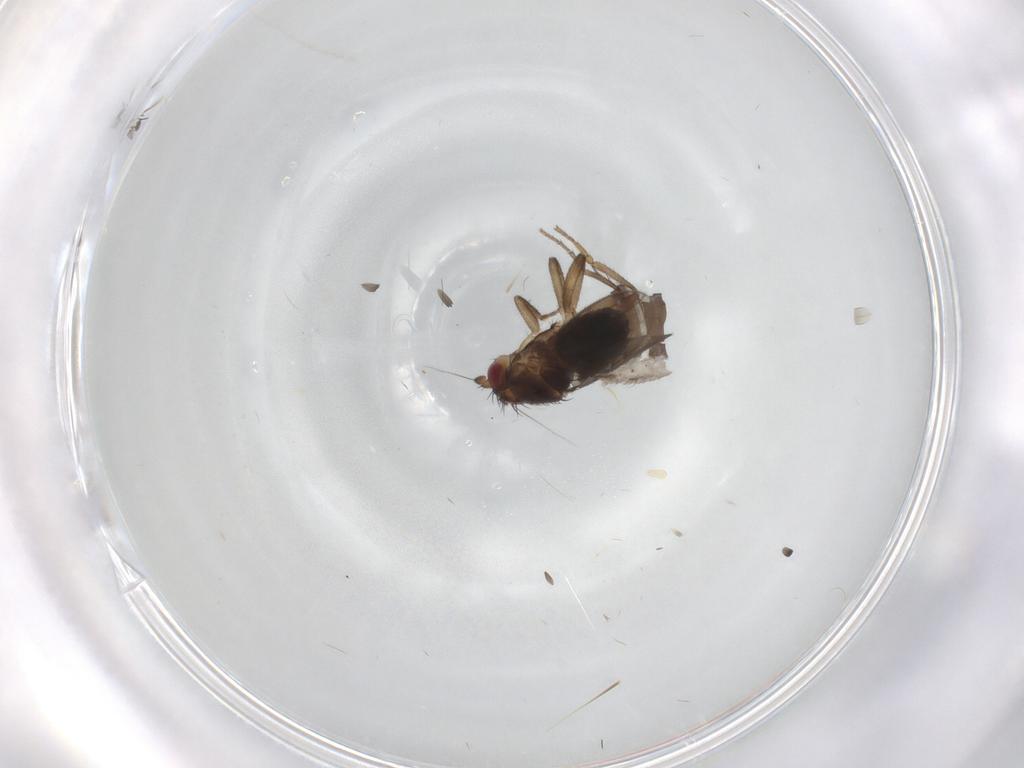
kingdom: Animalia
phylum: Arthropoda
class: Insecta
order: Diptera
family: Sciaridae
